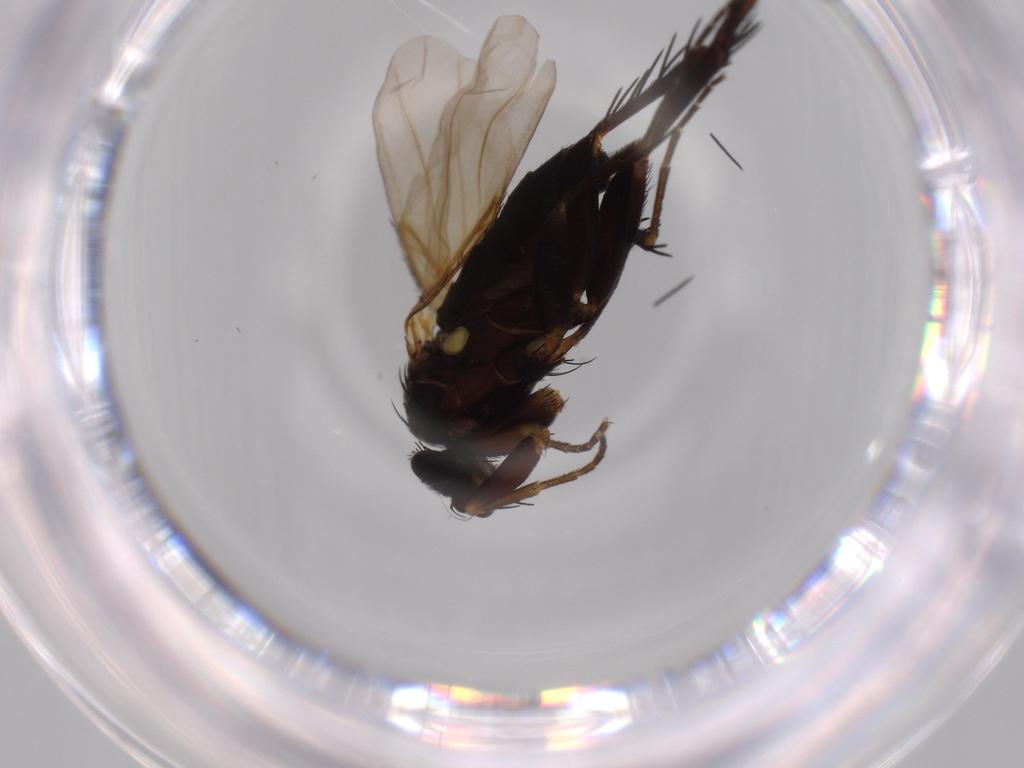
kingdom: Animalia
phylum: Arthropoda
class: Insecta
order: Diptera
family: Phoridae
